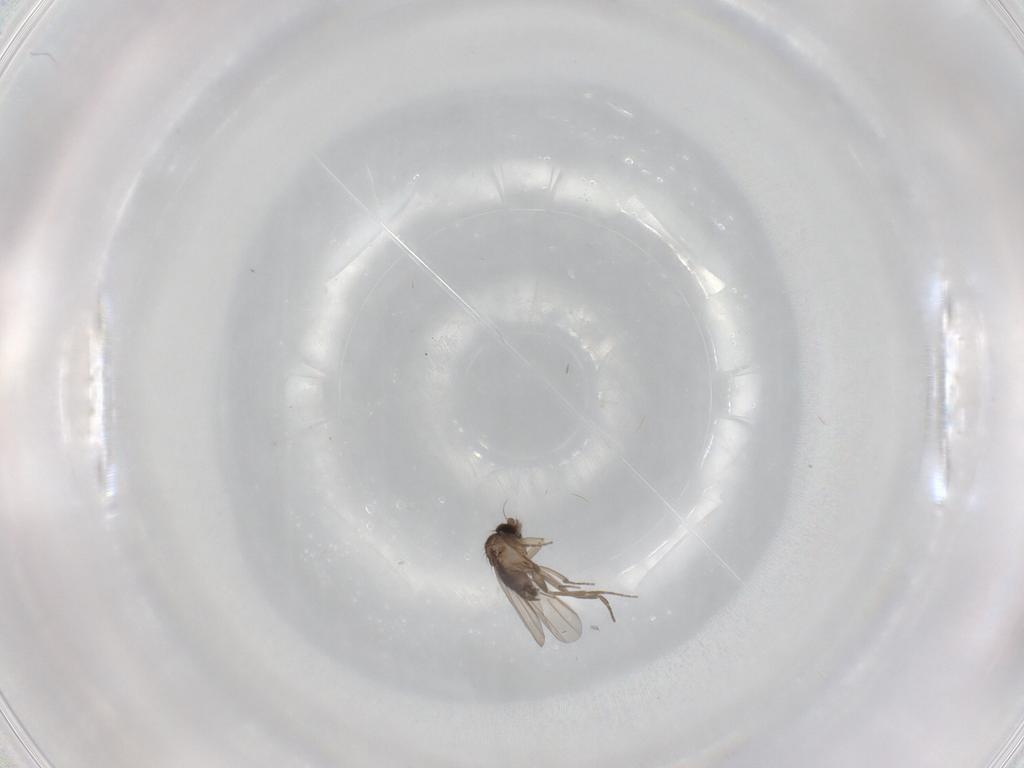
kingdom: Animalia
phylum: Arthropoda
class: Insecta
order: Diptera
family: Phoridae
